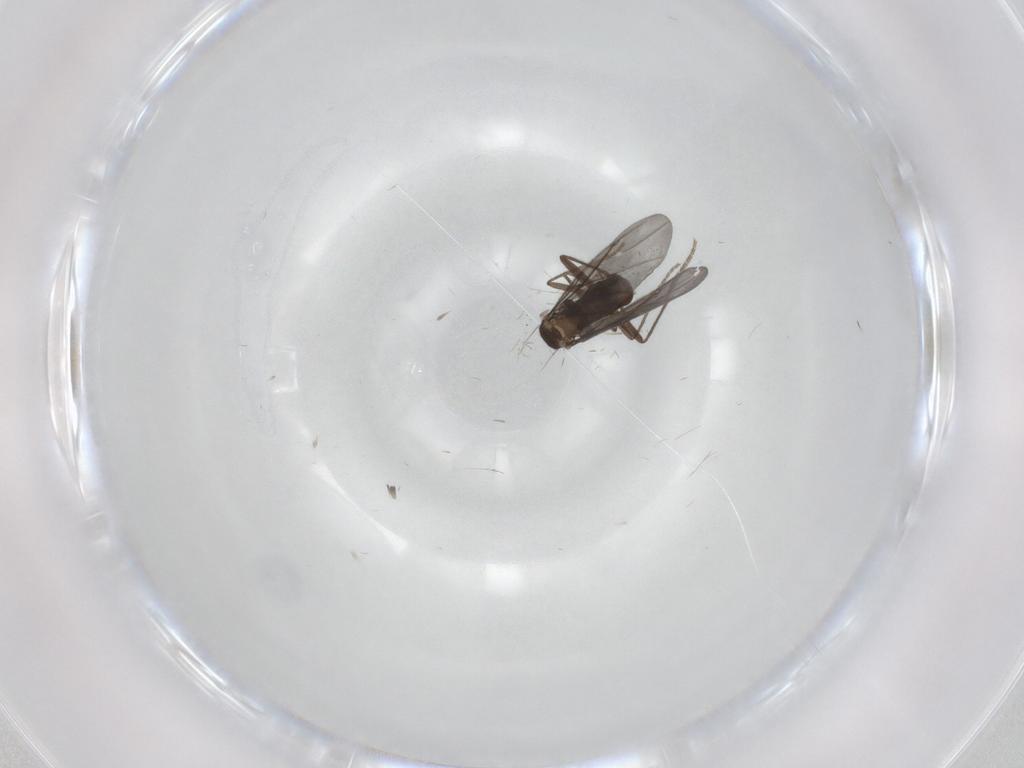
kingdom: Animalia
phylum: Arthropoda
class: Insecta
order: Diptera
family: Phoridae
